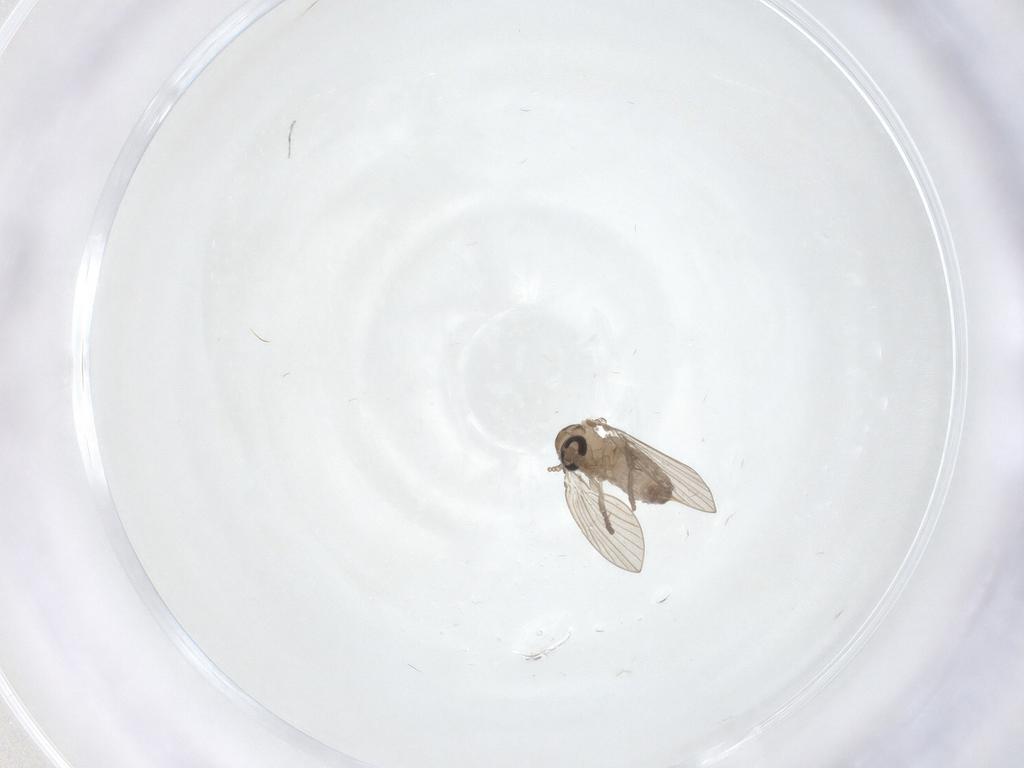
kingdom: Animalia
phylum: Arthropoda
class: Insecta
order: Diptera
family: Psychodidae
